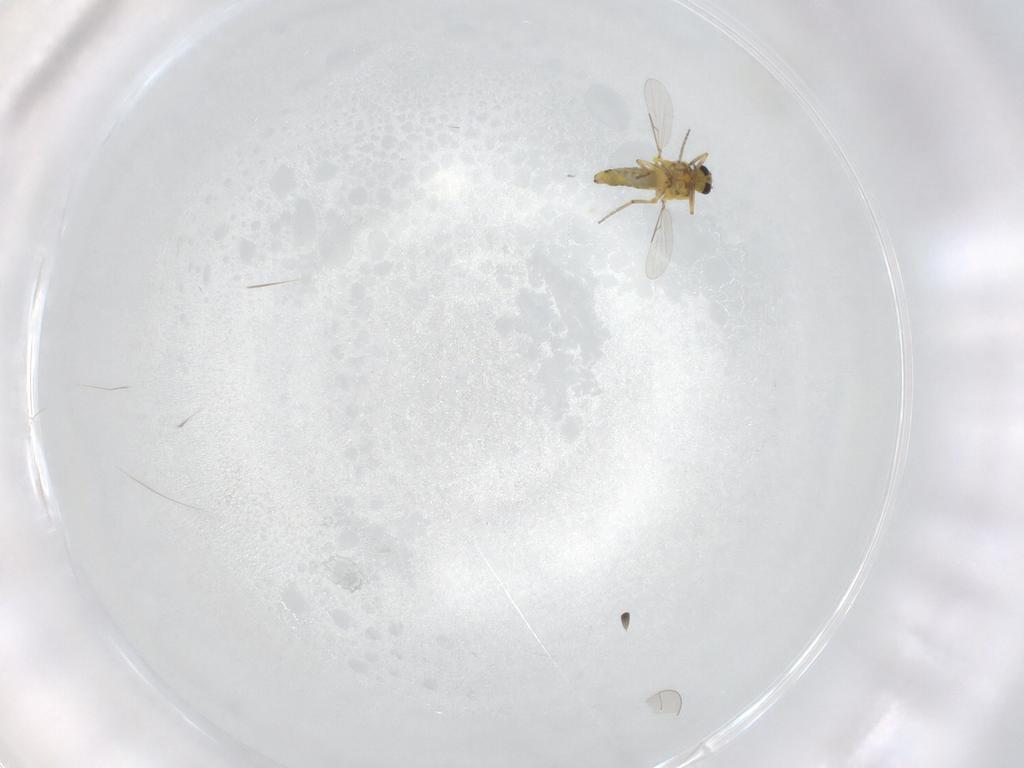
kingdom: Animalia
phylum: Arthropoda
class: Insecta
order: Diptera
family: Ceratopogonidae
